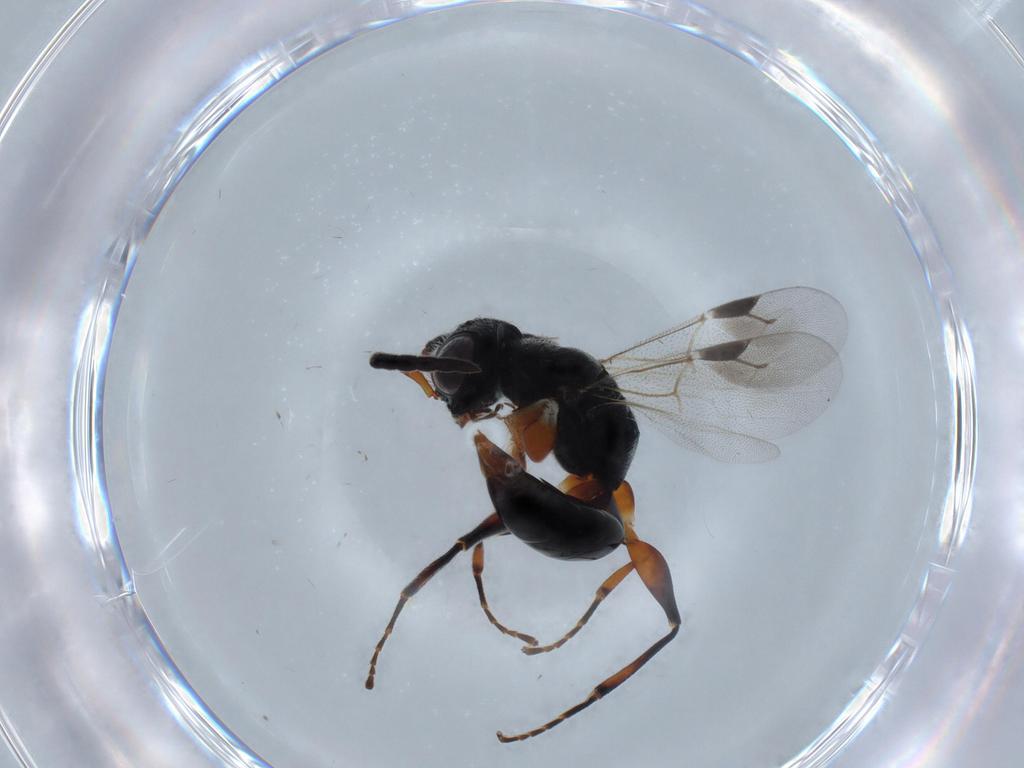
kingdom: Animalia
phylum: Arthropoda
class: Insecta
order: Hymenoptera
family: Dryinidae
